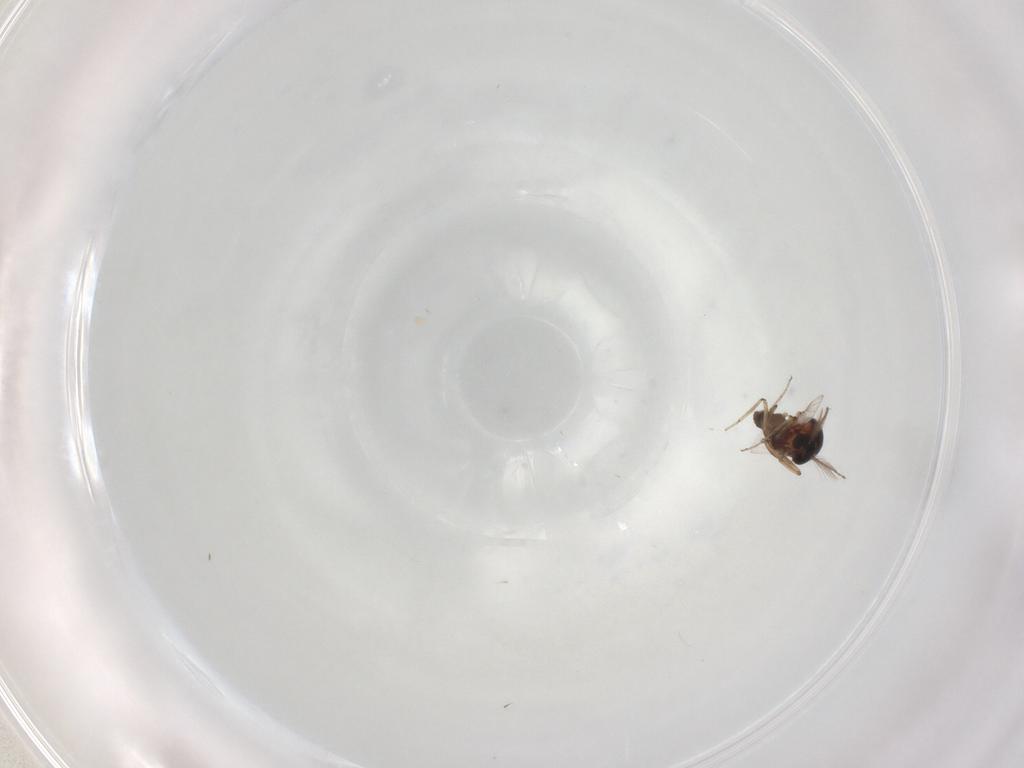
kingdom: Animalia
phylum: Arthropoda
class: Insecta
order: Diptera
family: Ceratopogonidae
